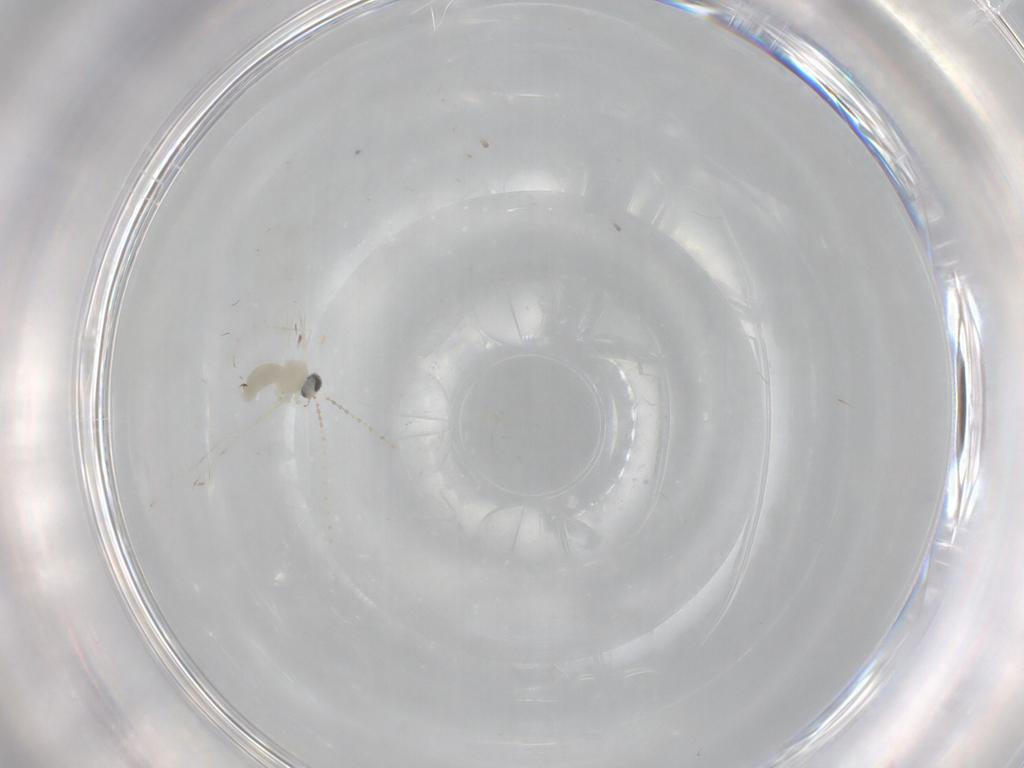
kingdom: Animalia
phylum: Arthropoda
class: Insecta
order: Diptera
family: Cecidomyiidae
